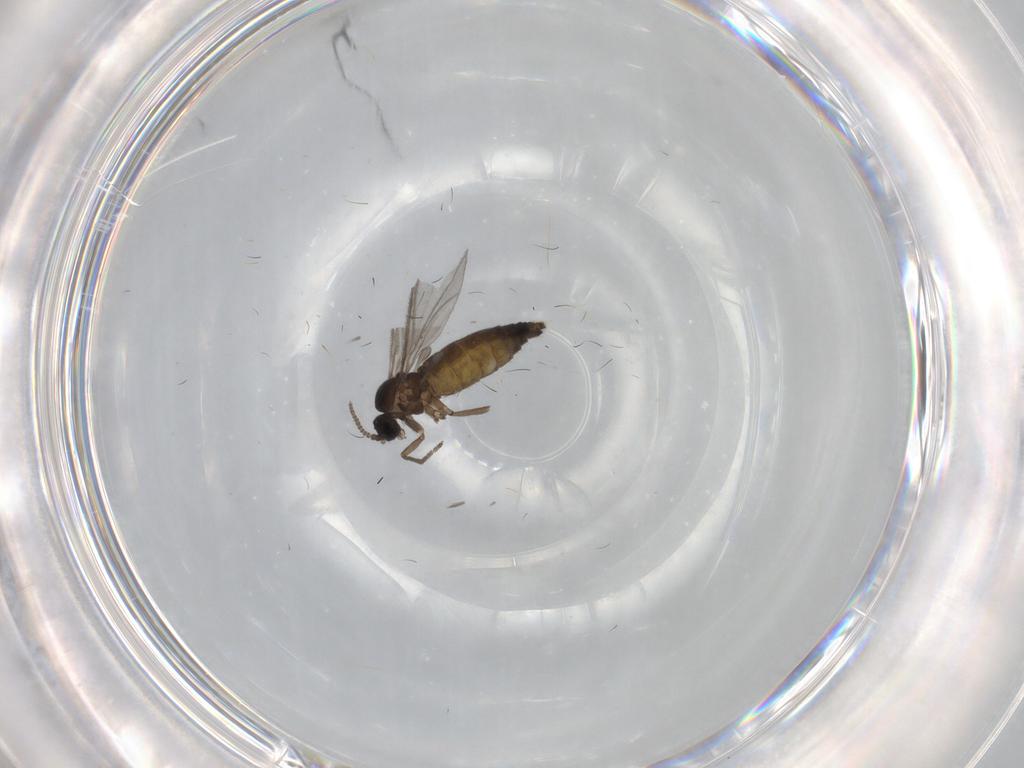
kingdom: Animalia
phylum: Arthropoda
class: Insecta
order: Diptera
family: Sciaridae
